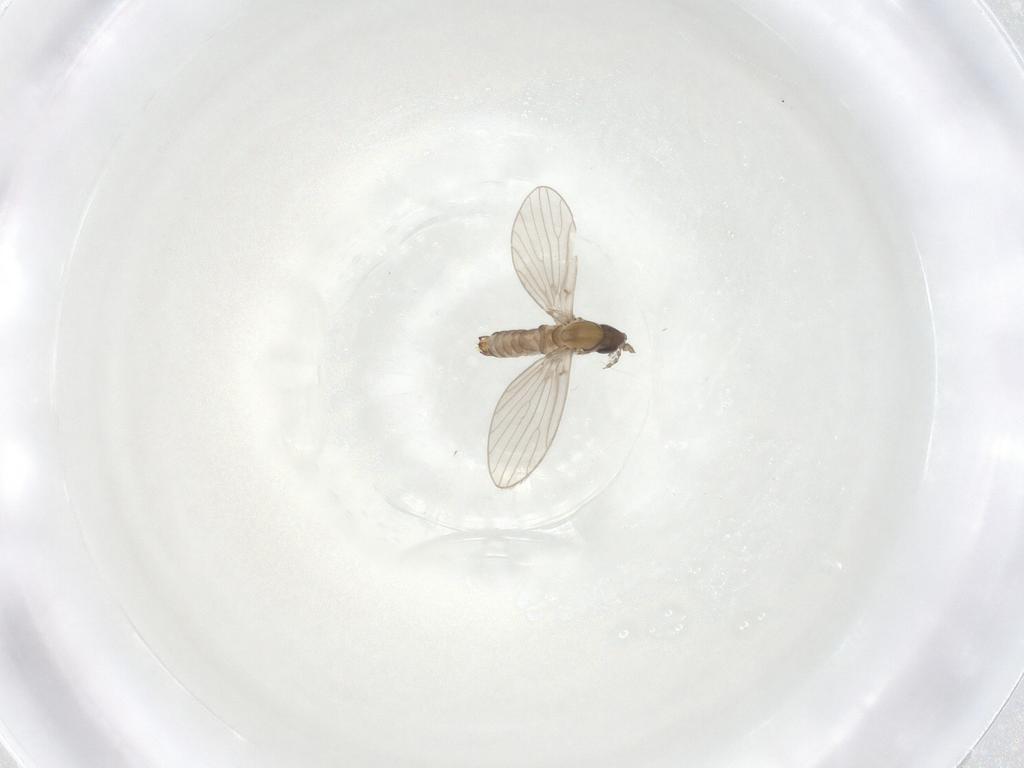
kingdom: Animalia
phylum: Arthropoda
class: Insecta
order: Diptera
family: Psychodidae
